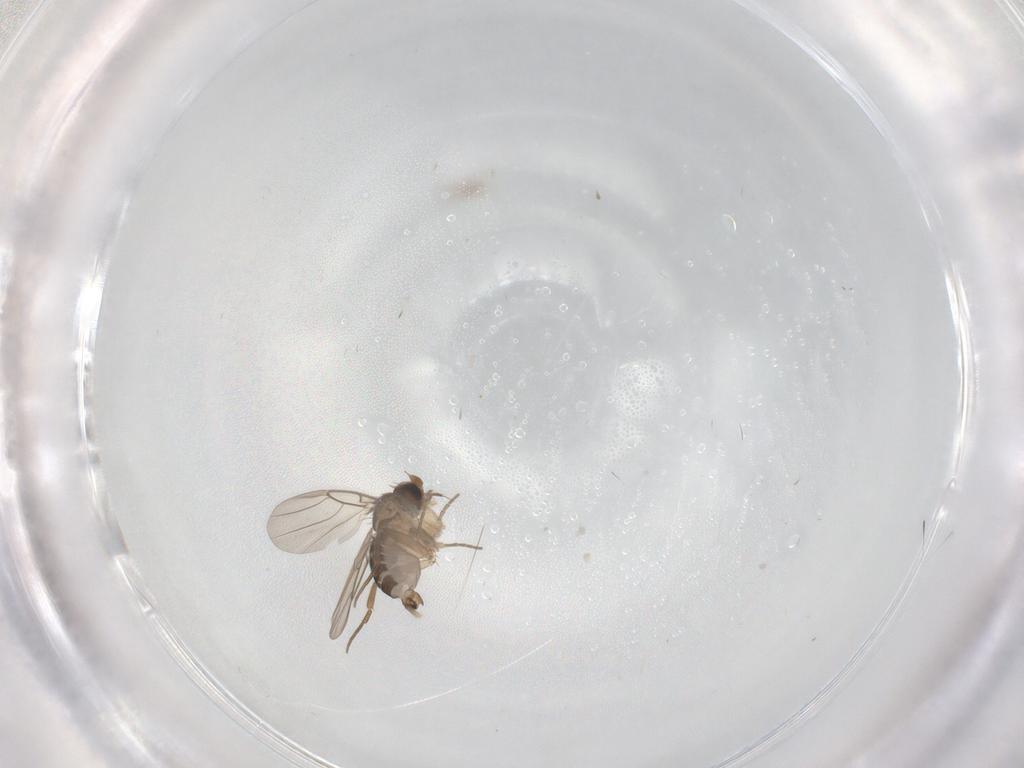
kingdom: Animalia
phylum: Arthropoda
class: Insecta
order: Diptera
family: Phoridae
